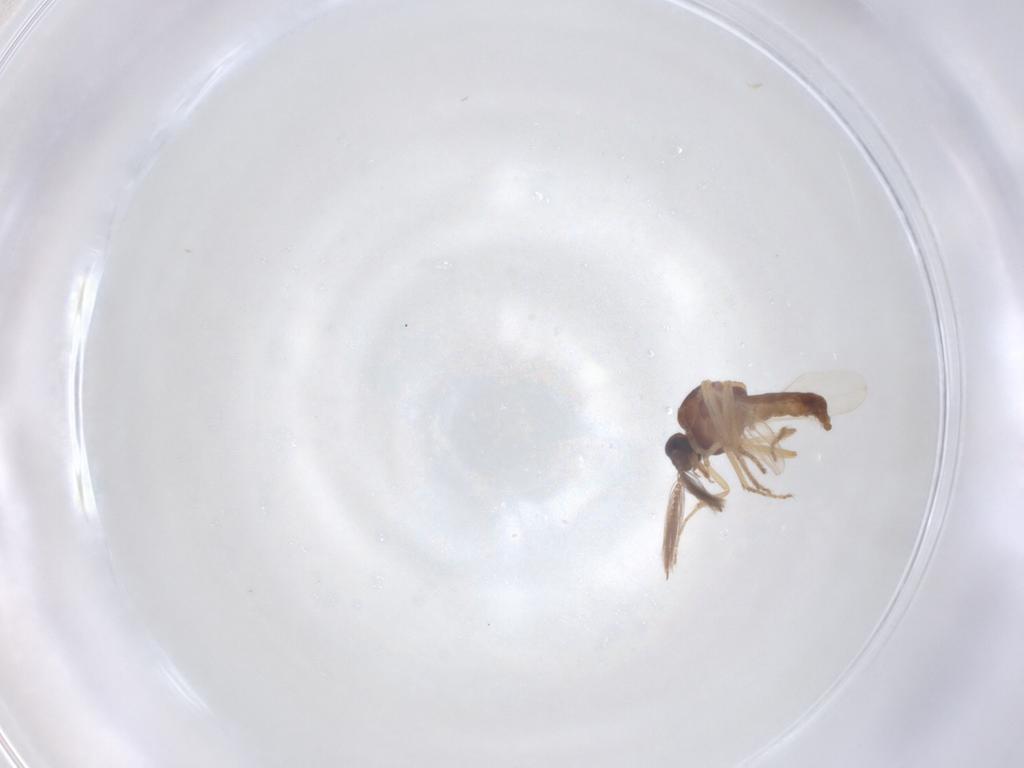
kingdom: Animalia
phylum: Arthropoda
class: Insecta
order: Diptera
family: Ceratopogonidae
